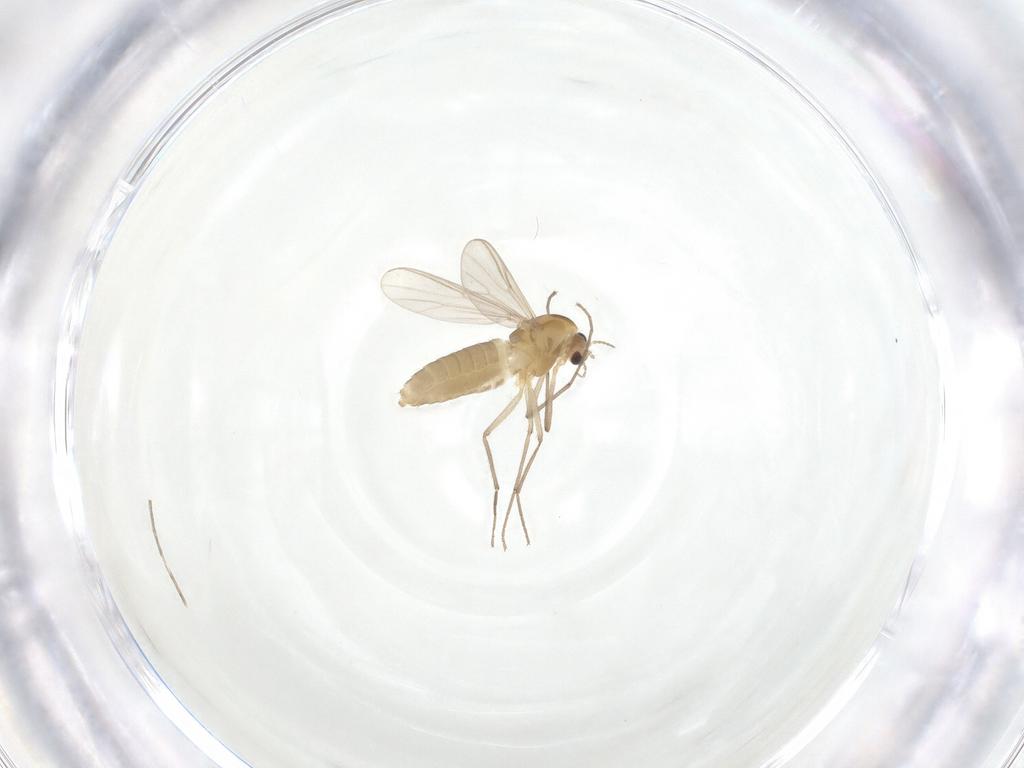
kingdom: Animalia
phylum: Arthropoda
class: Insecta
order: Diptera
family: Chironomidae
